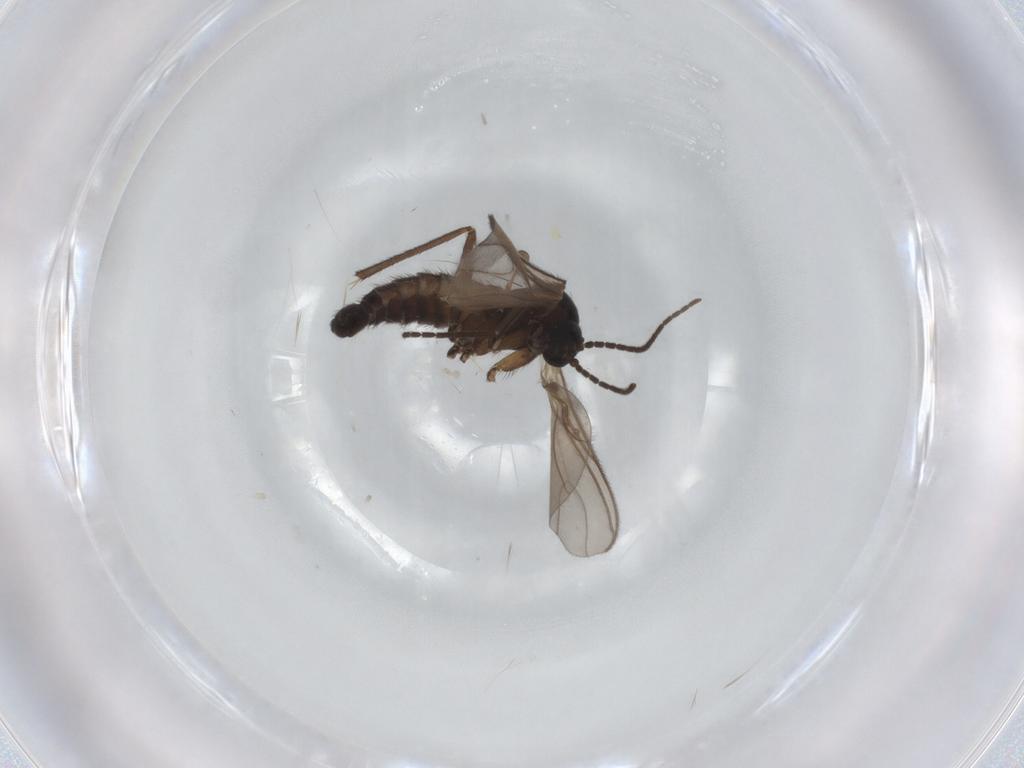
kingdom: Animalia
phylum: Arthropoda
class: Insecta
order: Diptera
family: Sciaridae
